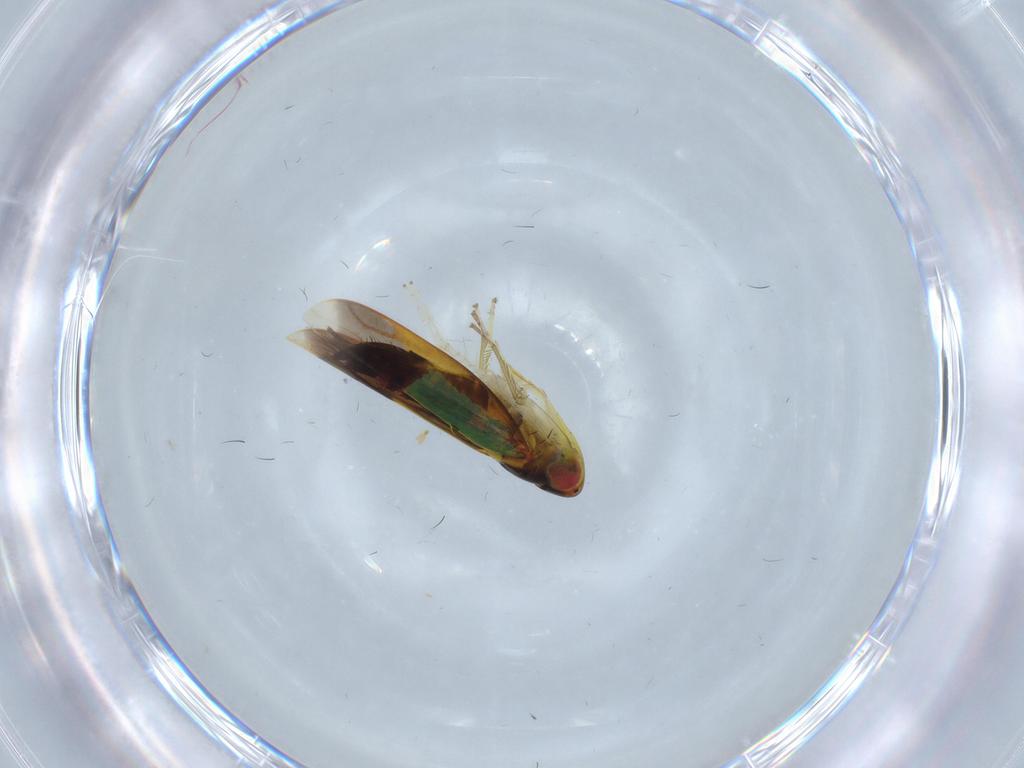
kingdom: Animalia
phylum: Arthropoda
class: Insecta
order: Hemiptera
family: Cicadellidae
